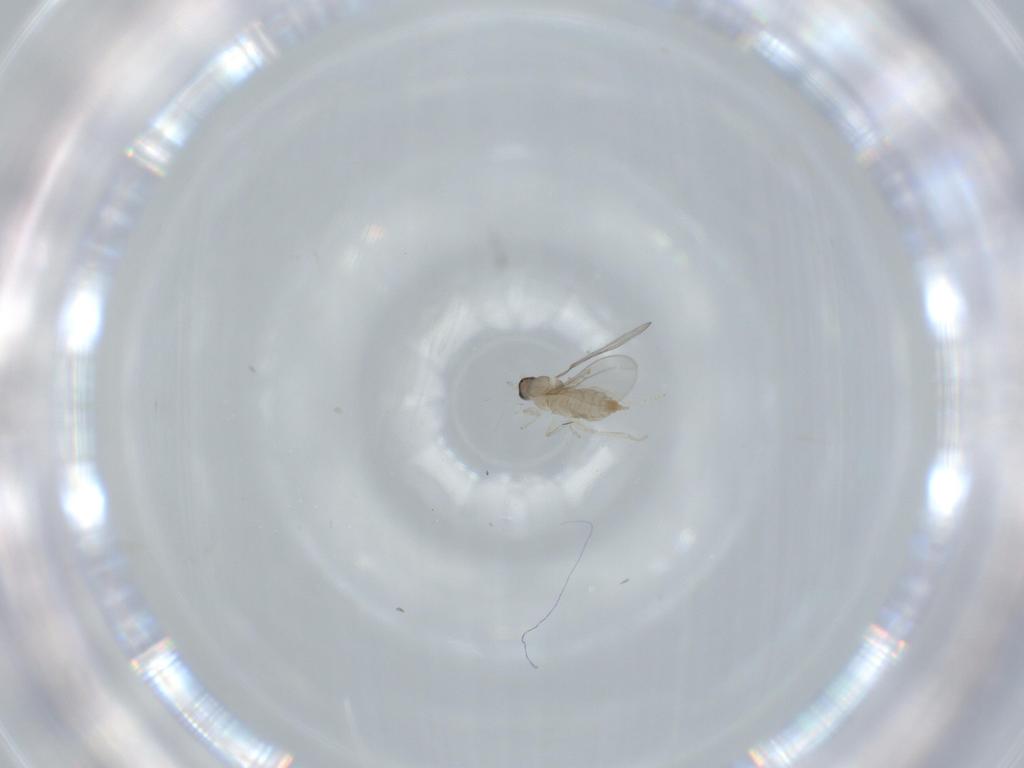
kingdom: Animalia
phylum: Arthropoda
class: Insecta
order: Diptera
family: Cecidomyiidae
